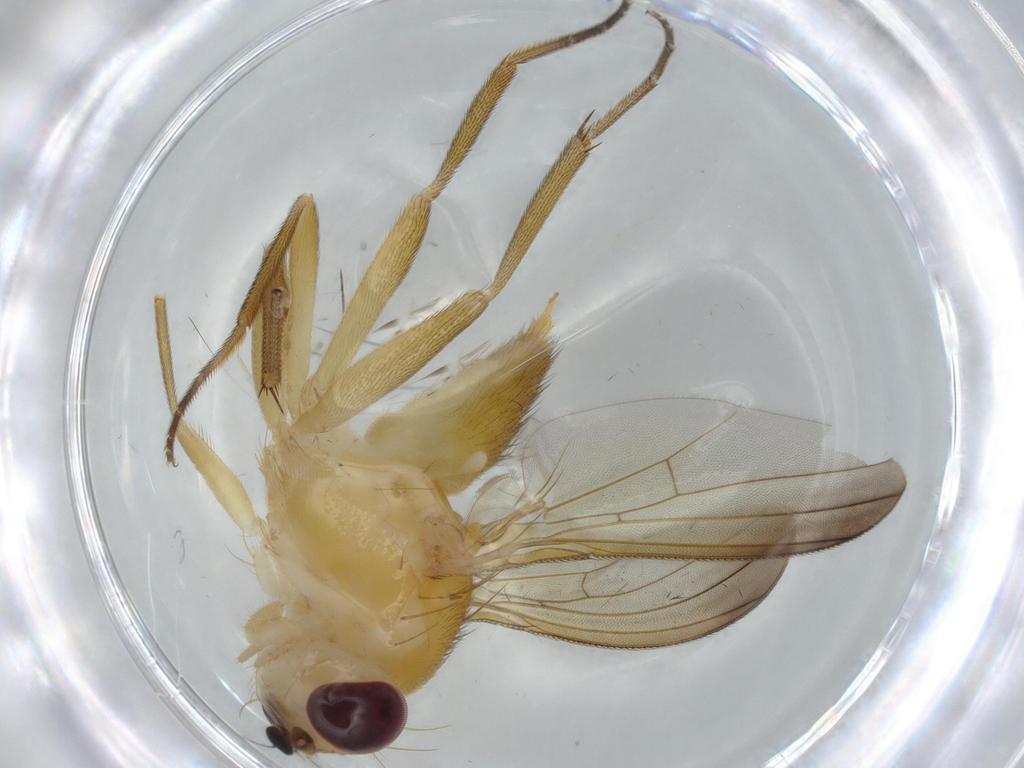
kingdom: Animalia
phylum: Arthropoda
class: Insecta
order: Diptera
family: Clusiidae
